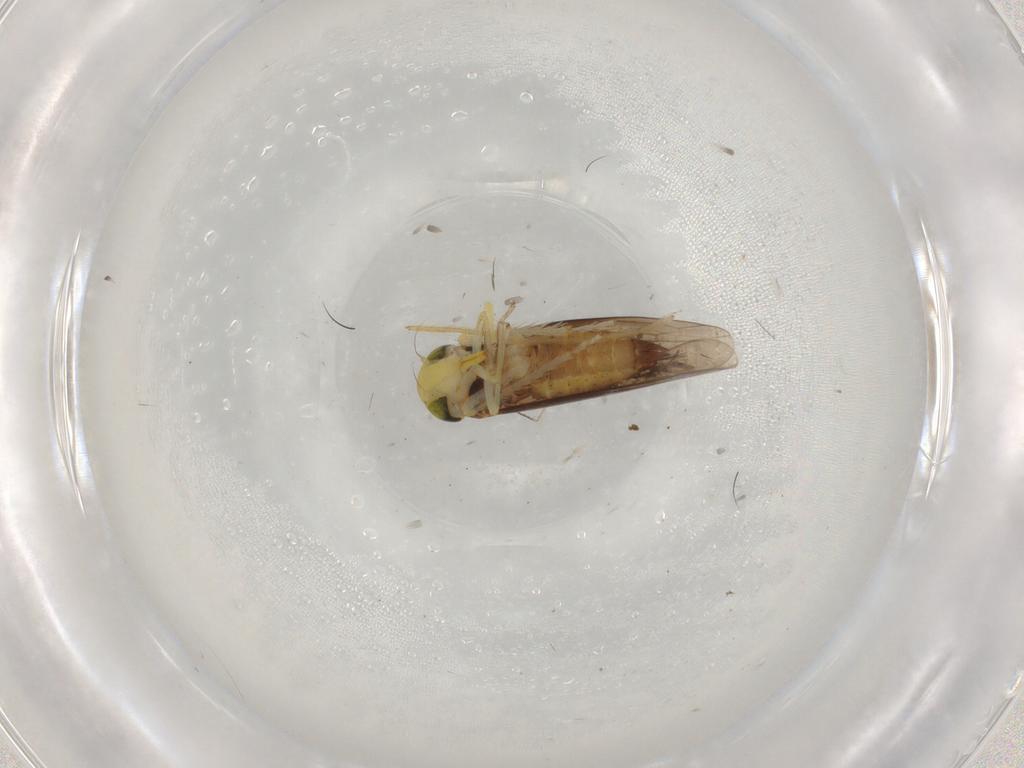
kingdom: Animalia
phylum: Arthropoda
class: Insecta
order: Hemiptera
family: Cicadellidae
